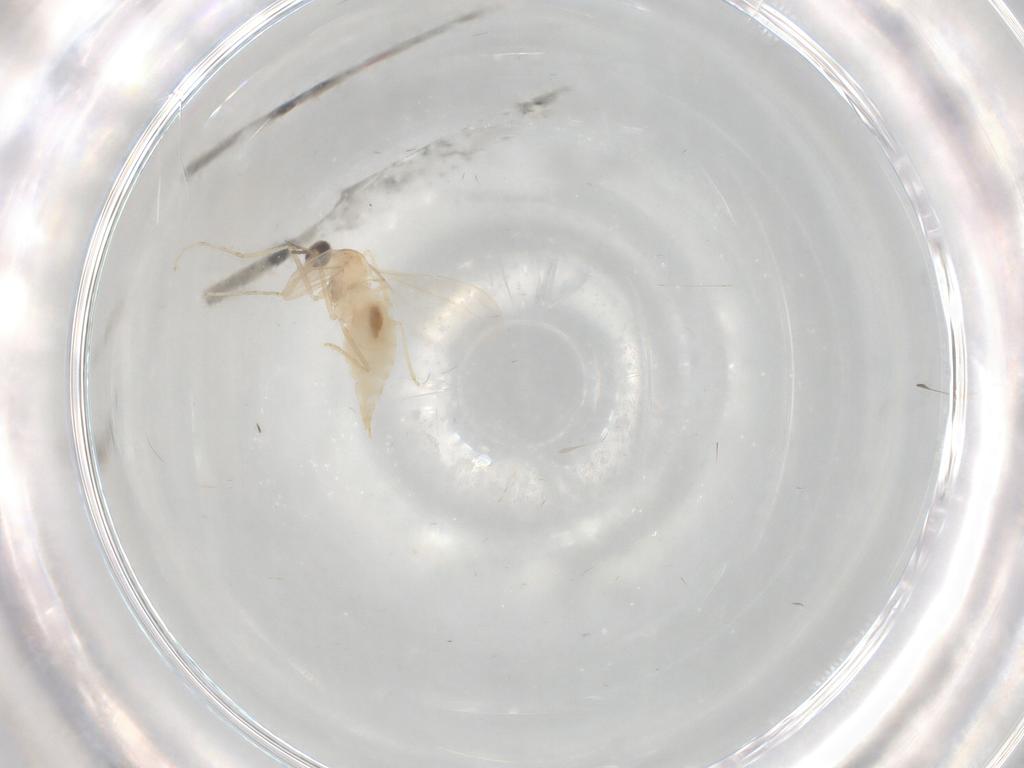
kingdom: Animalia
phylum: Arthropoda
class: Insecta
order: Diptera
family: Cecidomyiidae
